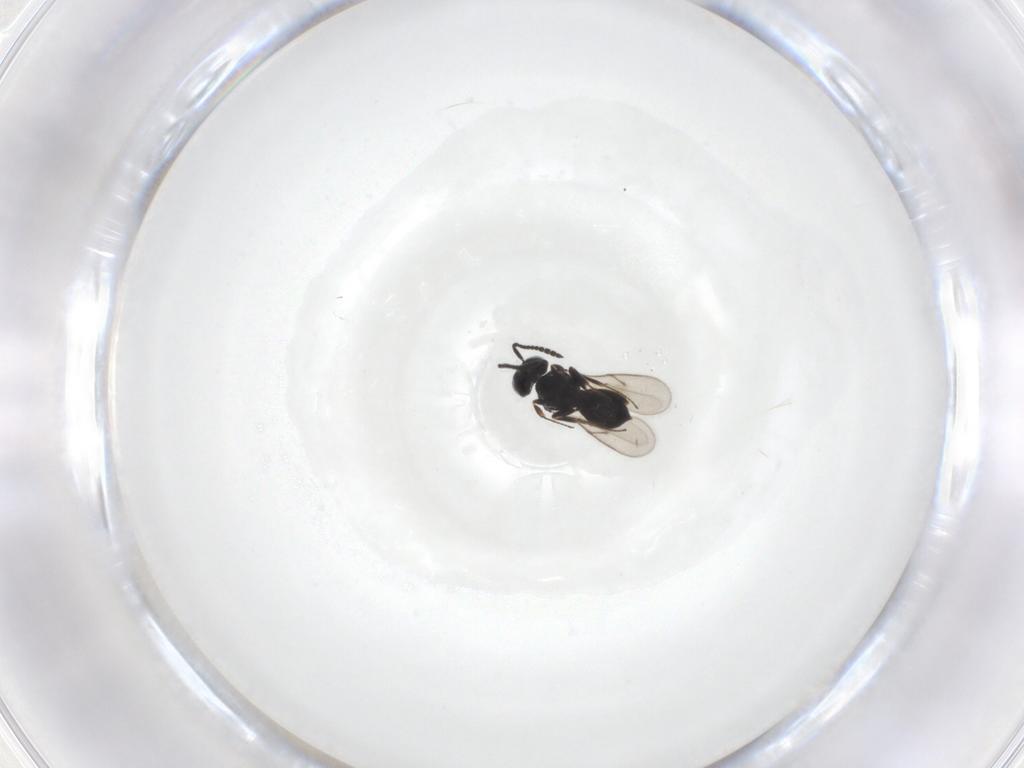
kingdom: Animalia
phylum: Arthropoda
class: Insecta
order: Hymenoptera
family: Scelionidae
